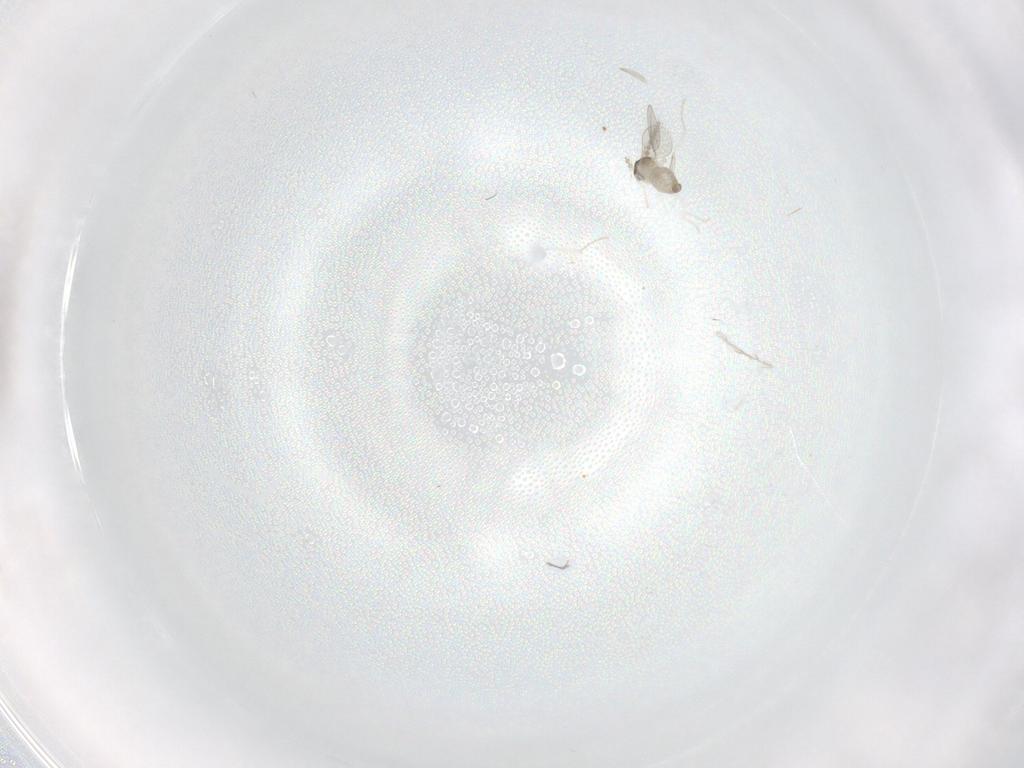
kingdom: Animalia
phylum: Arthropoda
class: Insecta
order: Diptera
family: Cecidomyiidae
